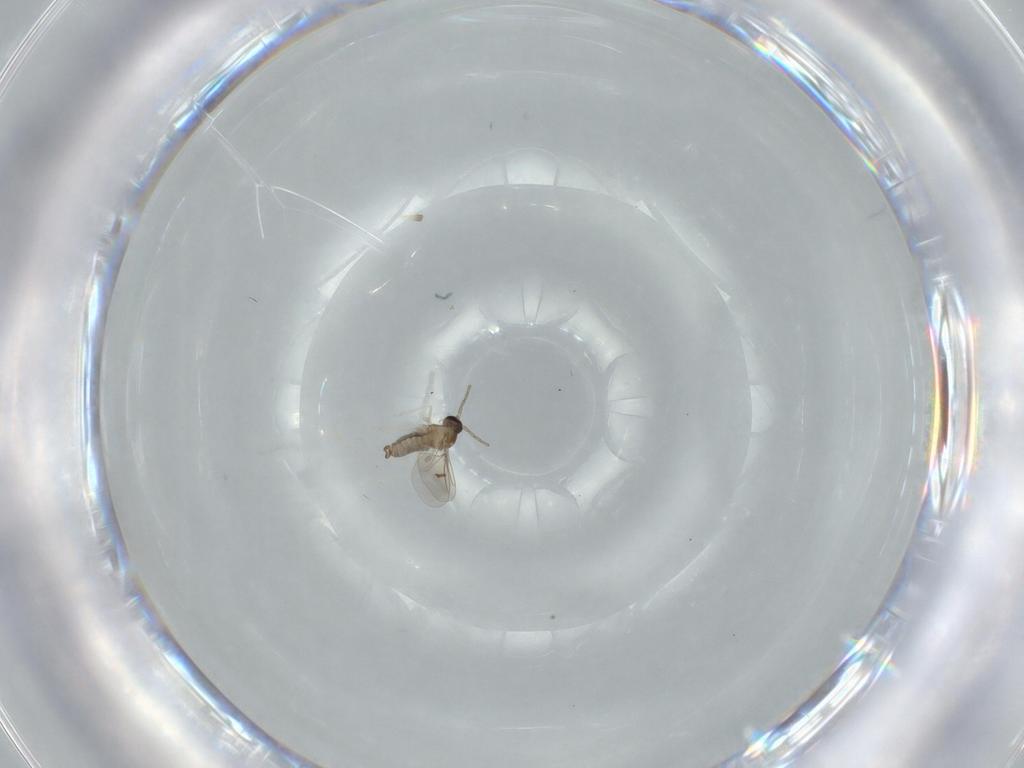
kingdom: Animalia
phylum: Arthropoda
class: Insecta
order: Diptera
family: Cecidomyiidae
